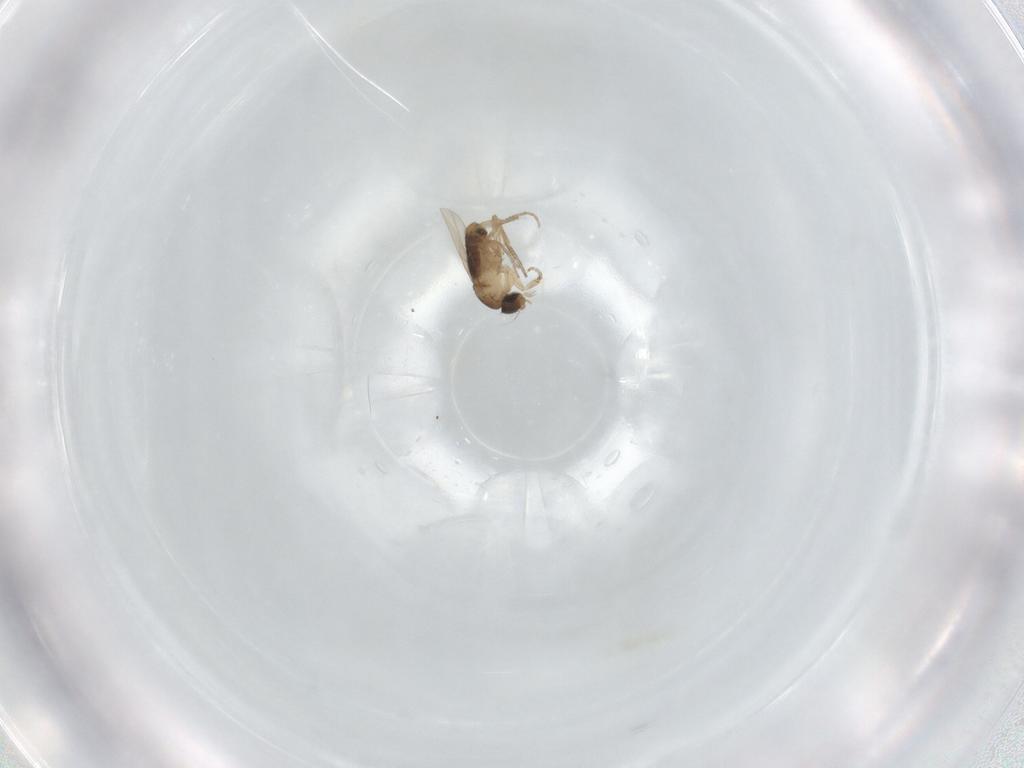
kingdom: Animalia
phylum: Arthropoda
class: Insecta
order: Diptera
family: Phoridae
